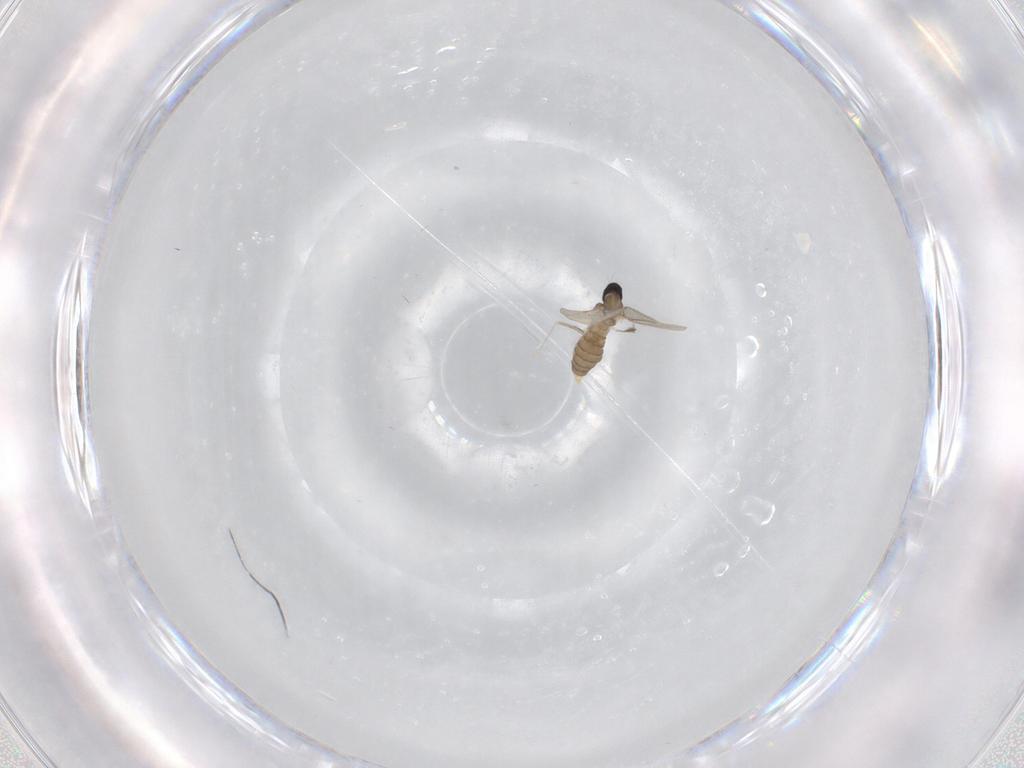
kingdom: Animalia
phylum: Arthropoda
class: Insecta
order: Diptera
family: Cecidomyiidae
